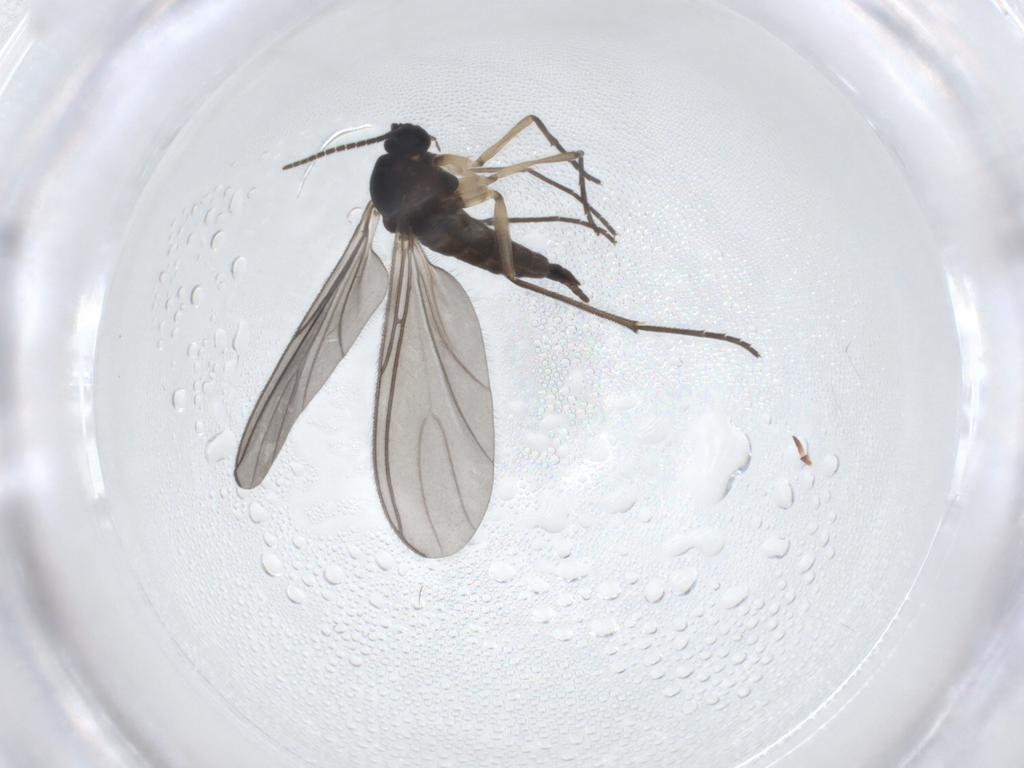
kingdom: Animalia
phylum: Arthropoda
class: Insecta
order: Diptera
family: Sciaridae
